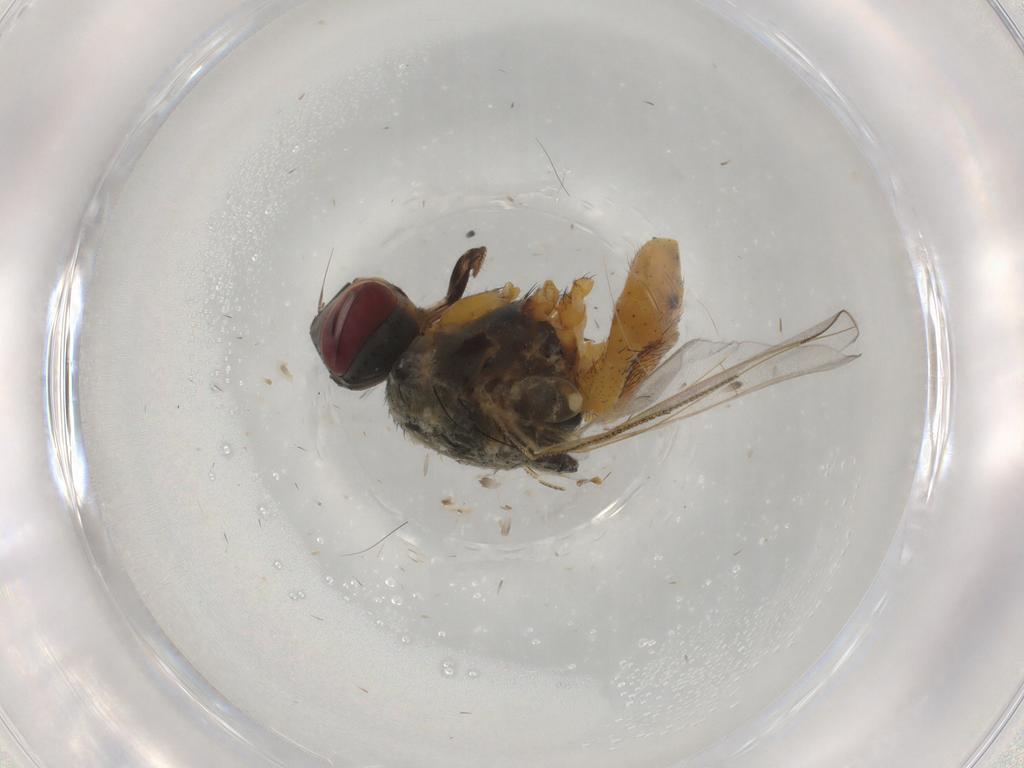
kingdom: Animalia
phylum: Arthropoda
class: Insecta
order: Diptera
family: Muscidae
